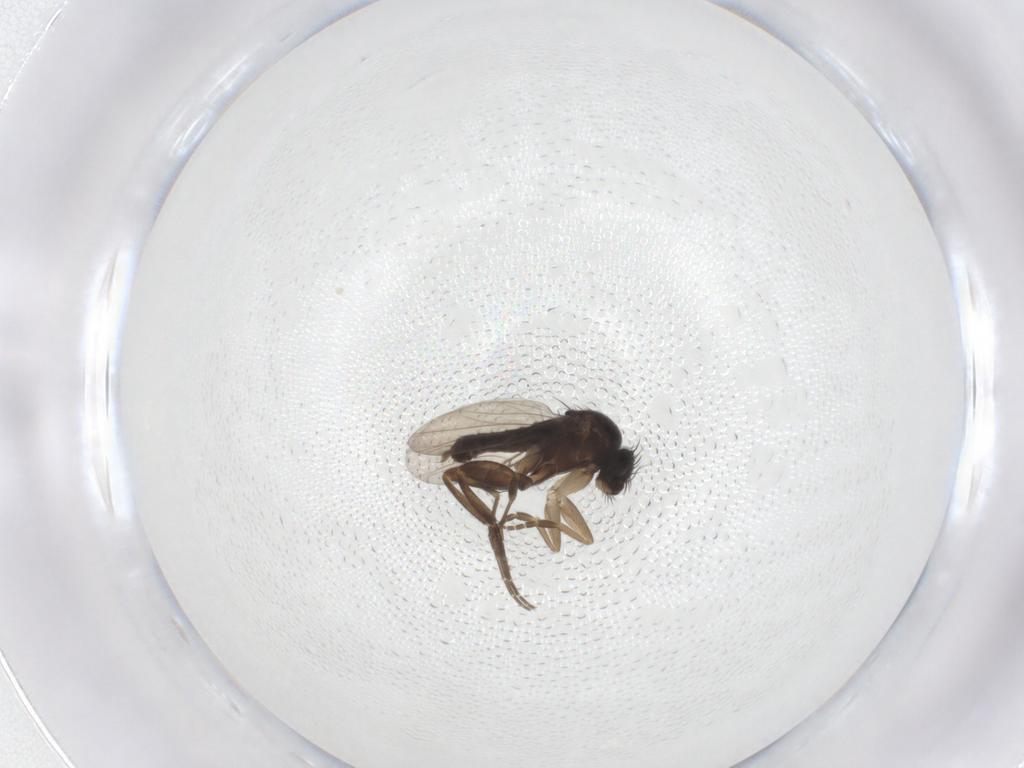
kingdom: Animalia
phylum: Arthropoda
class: Insecta
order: Diptera
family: Phoridae
